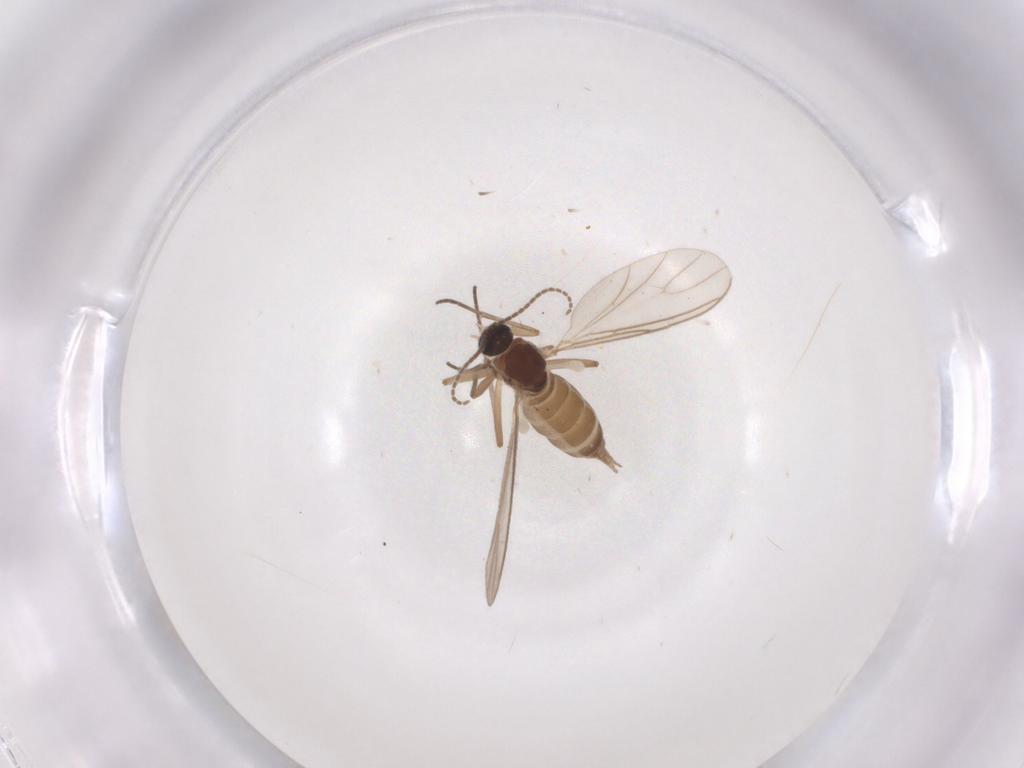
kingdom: Animalia
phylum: Arthropoda
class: Insecta
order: Diptera
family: Sciaridae
